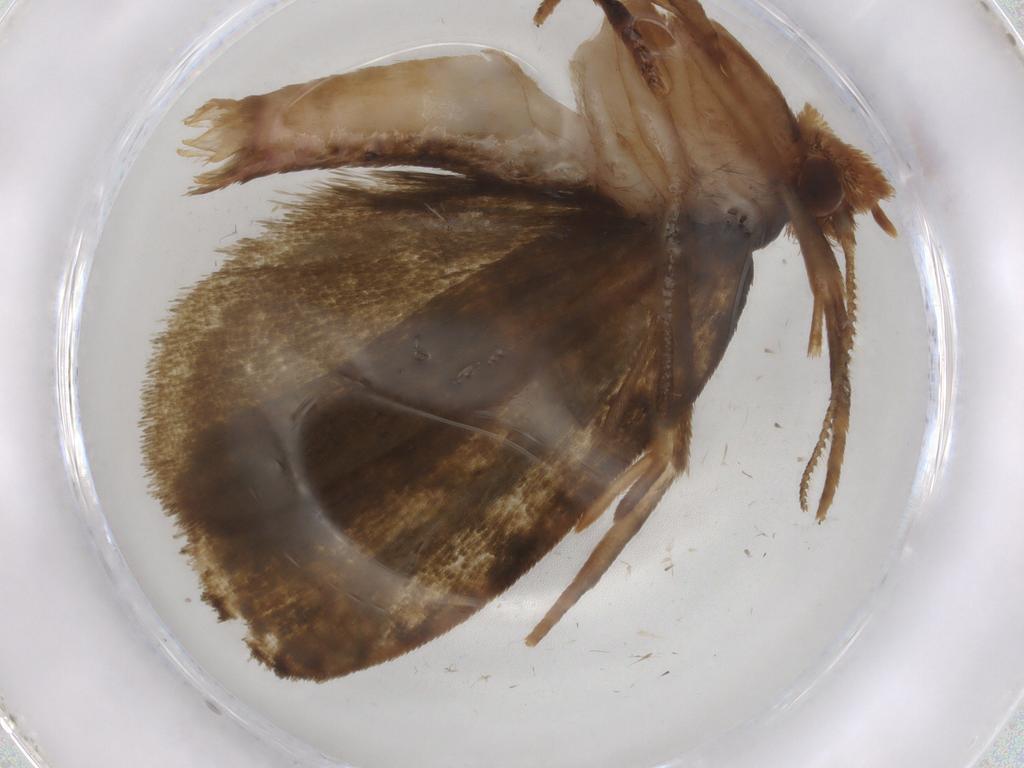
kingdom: Animalia
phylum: Arthropoda
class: Insecta
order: Lepidoptera
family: Geometridae
